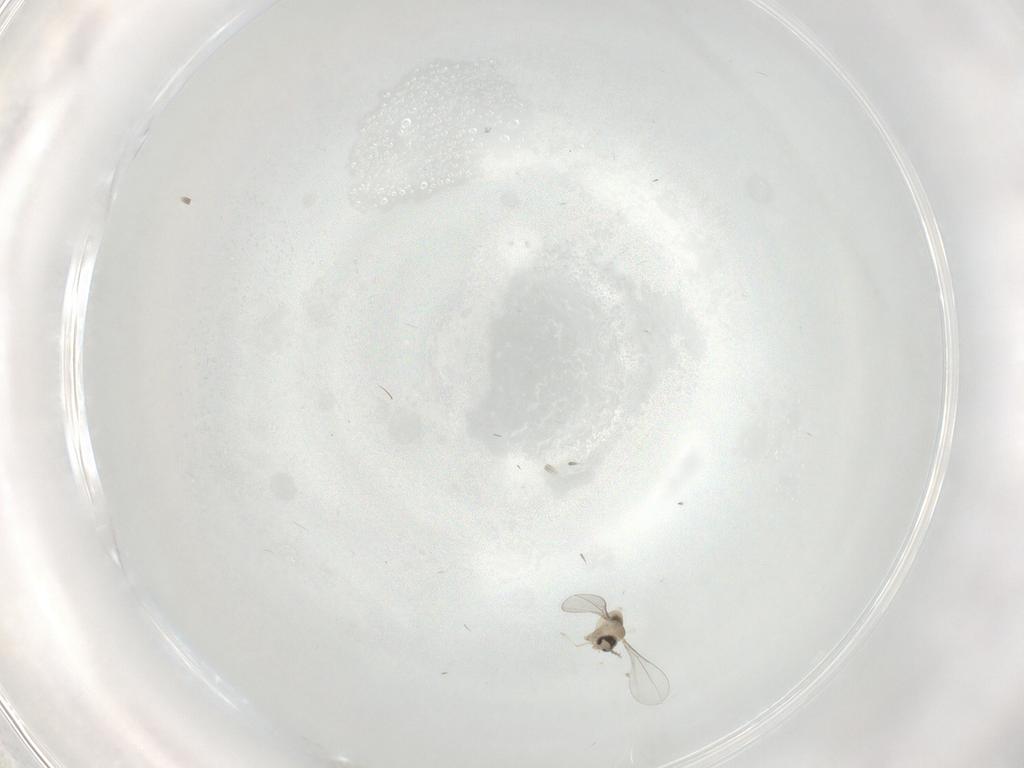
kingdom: Animalia
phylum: Arthropoda
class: Insecta
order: Diptera
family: Ceratopogonidae
